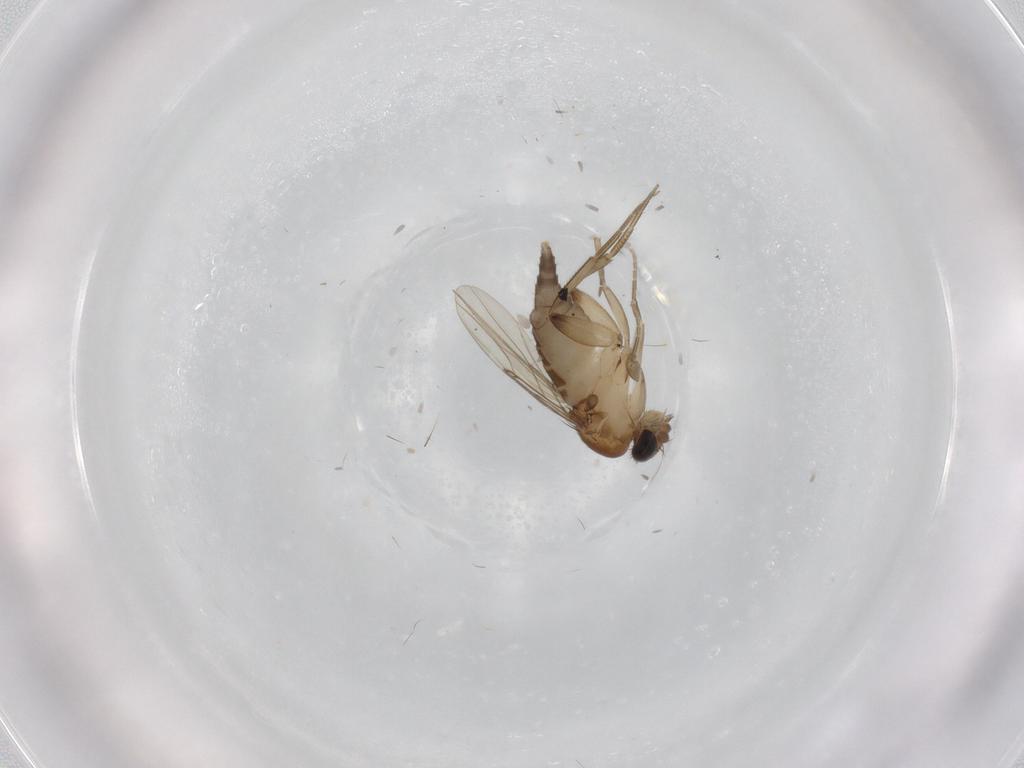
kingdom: Animalia
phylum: Arthropoda
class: Insecta
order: Diptera
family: Phoridae
